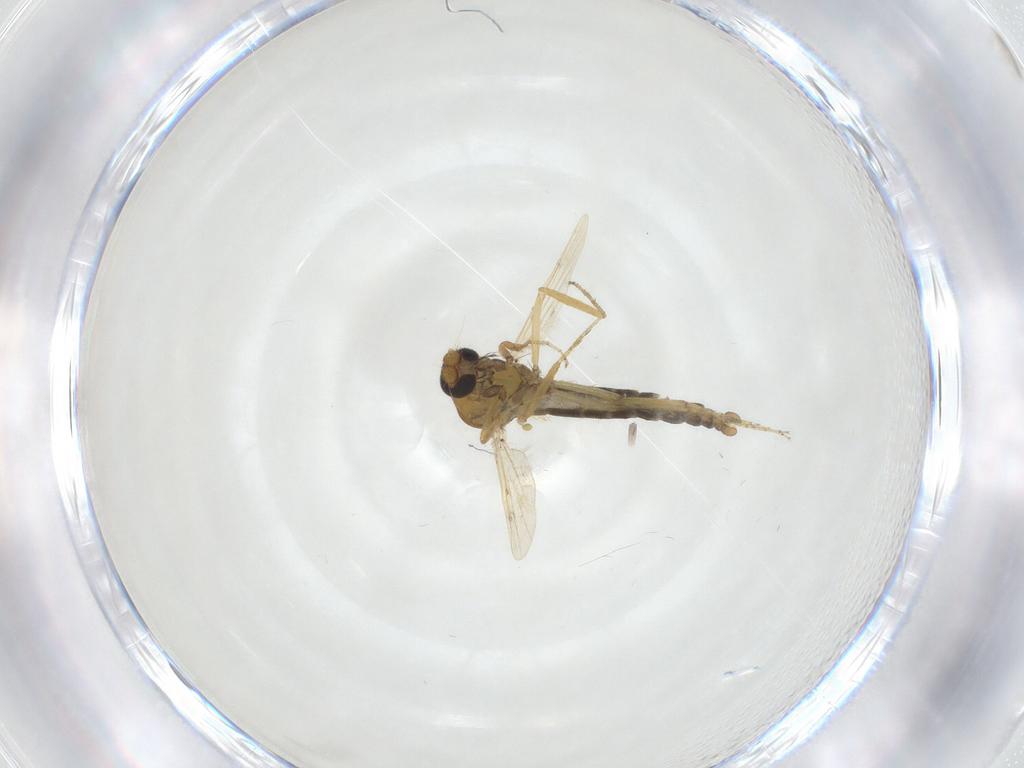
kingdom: Animalia
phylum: Arthropoda
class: Insecta
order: Diptera
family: Ceratopogonidae
